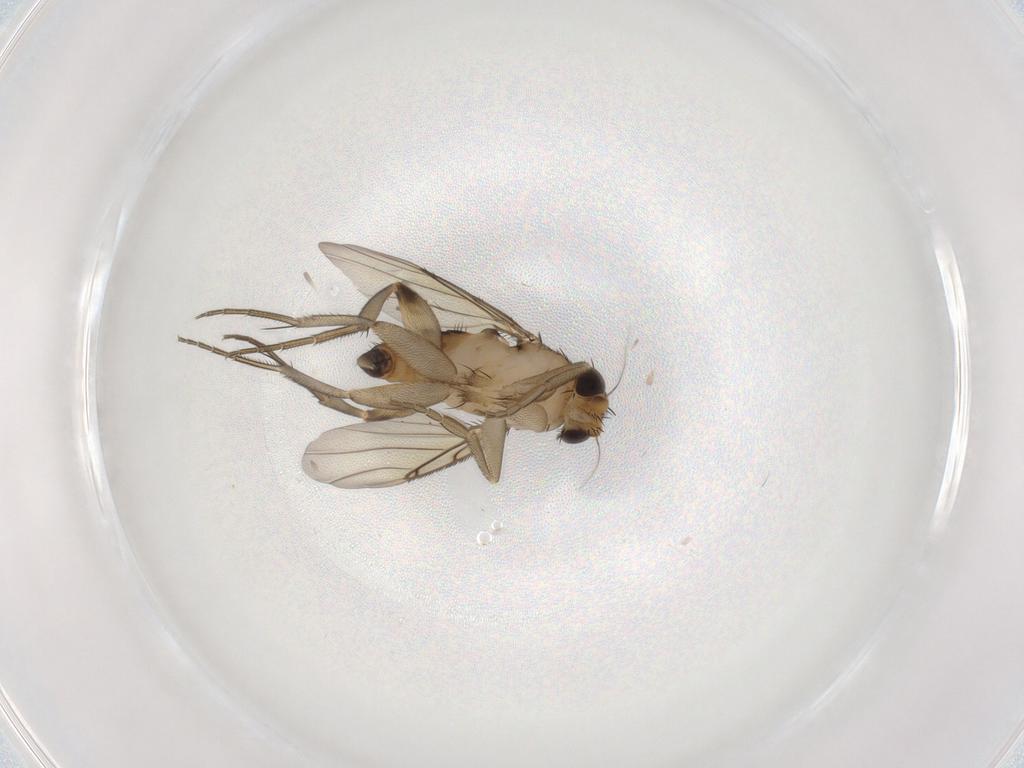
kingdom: Animalia
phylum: Arthropoda
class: Insecta
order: Diptera
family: Phoridae
